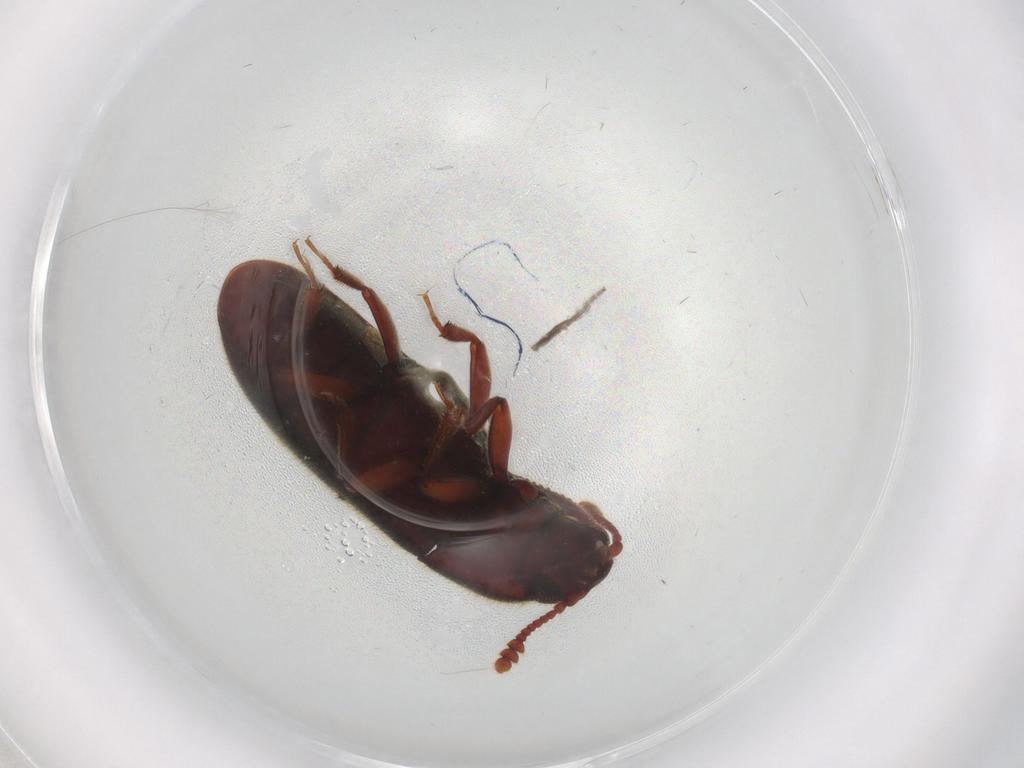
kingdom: Animalia
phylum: Arthropoda
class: Insecta
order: Coleoptera
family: Biphyllidae
